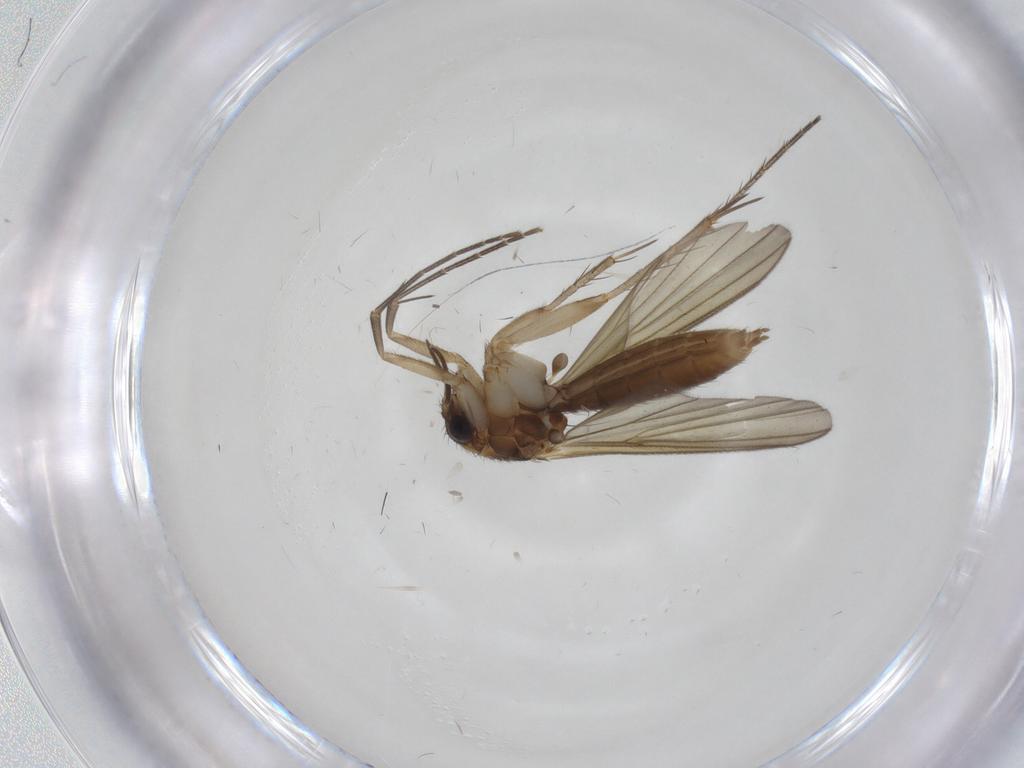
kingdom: Animalia
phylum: Arthropoda
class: Insecta
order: Diptera
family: Mycetophilidae
